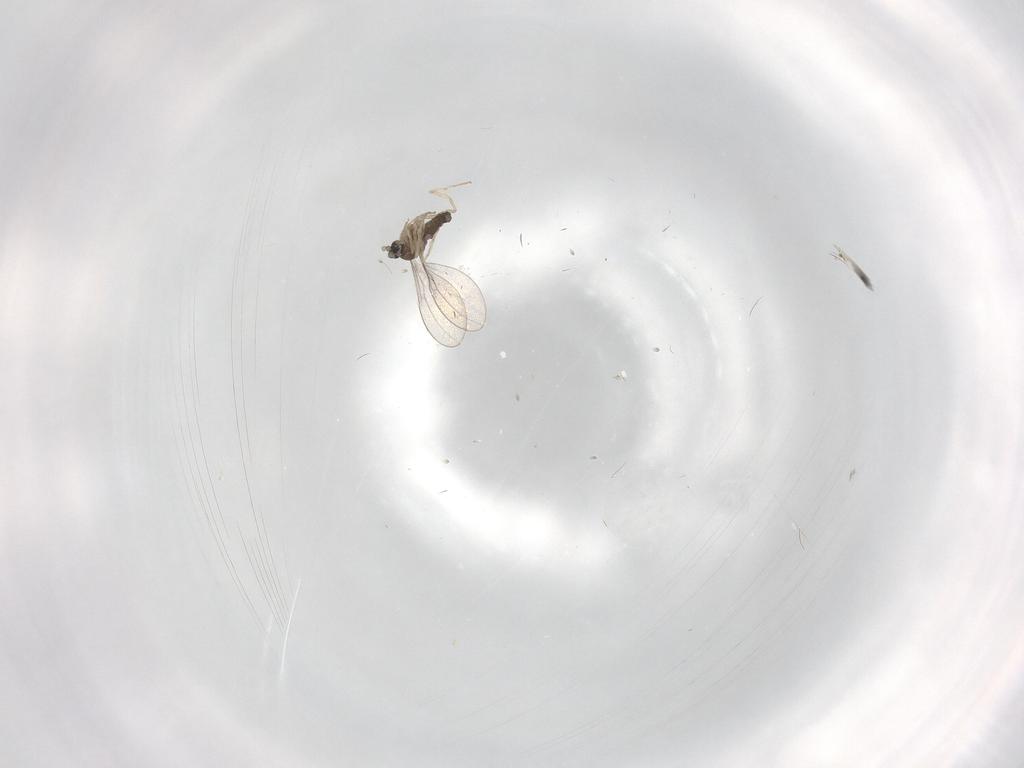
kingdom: Animalia
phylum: Arthropoda
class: Insecta
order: Diptera
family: Cecidomyiidae
